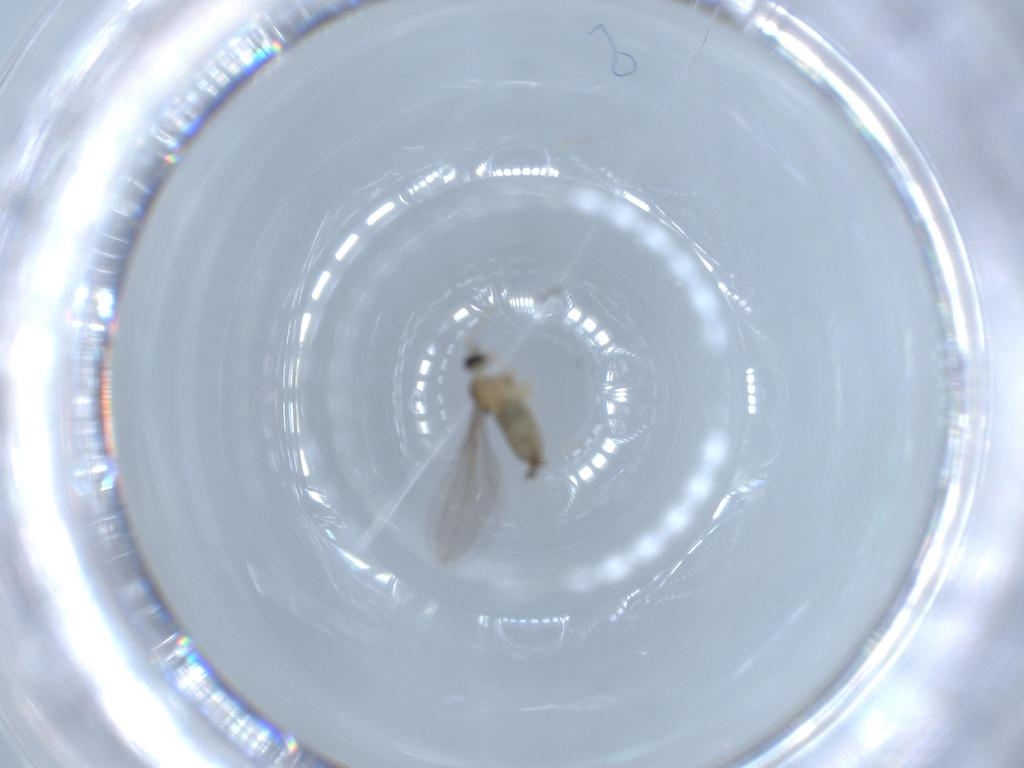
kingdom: Animalia
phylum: Arthropoda
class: Insecta
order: Diptera
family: Cecidomyiidae
